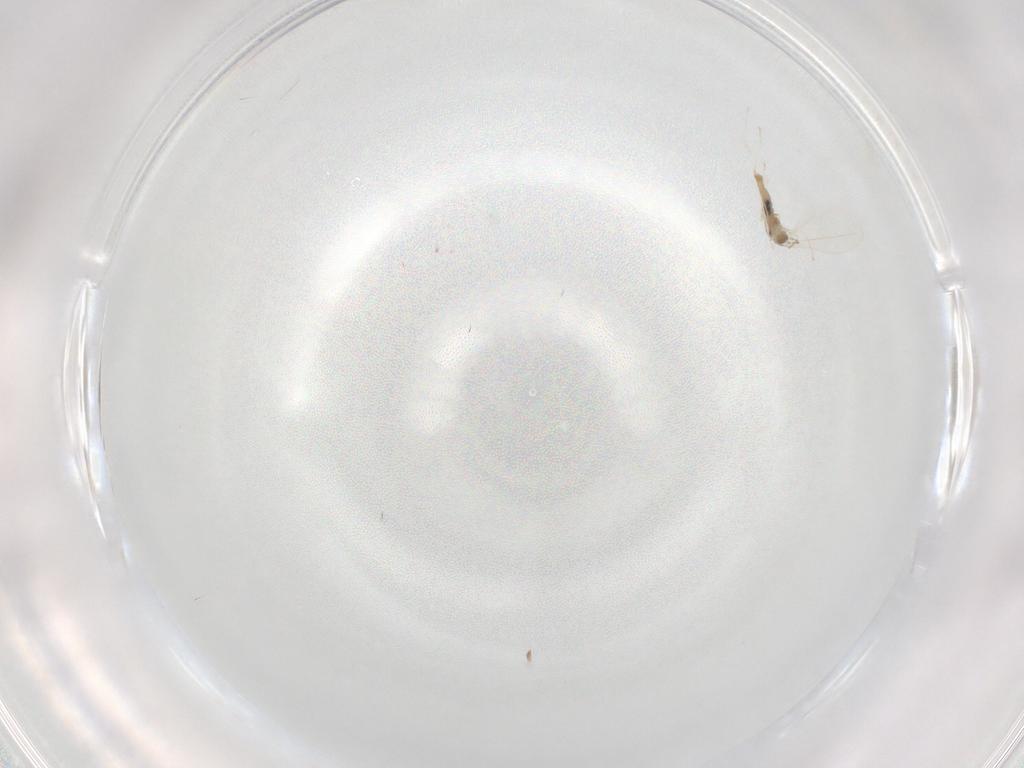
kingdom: Animalia
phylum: Arthropoda
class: Insecta
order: Diptera
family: Cecidomyiidae
